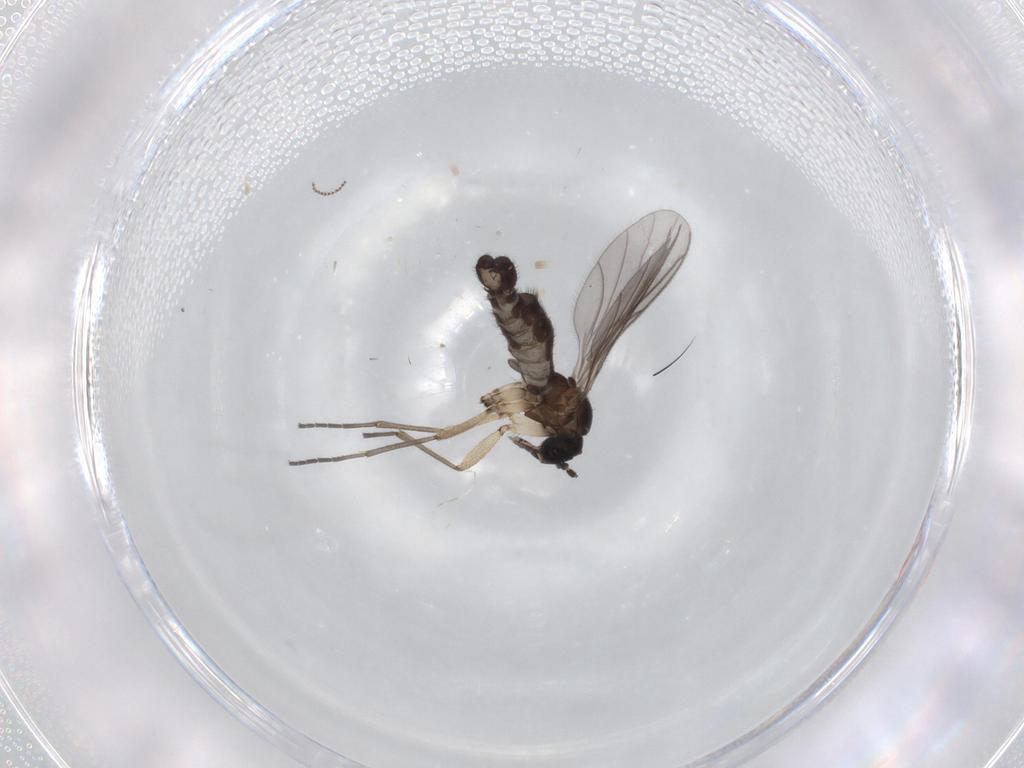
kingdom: Animalia
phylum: Arthropoda
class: Insecta
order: Diptera
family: Sciaridae
